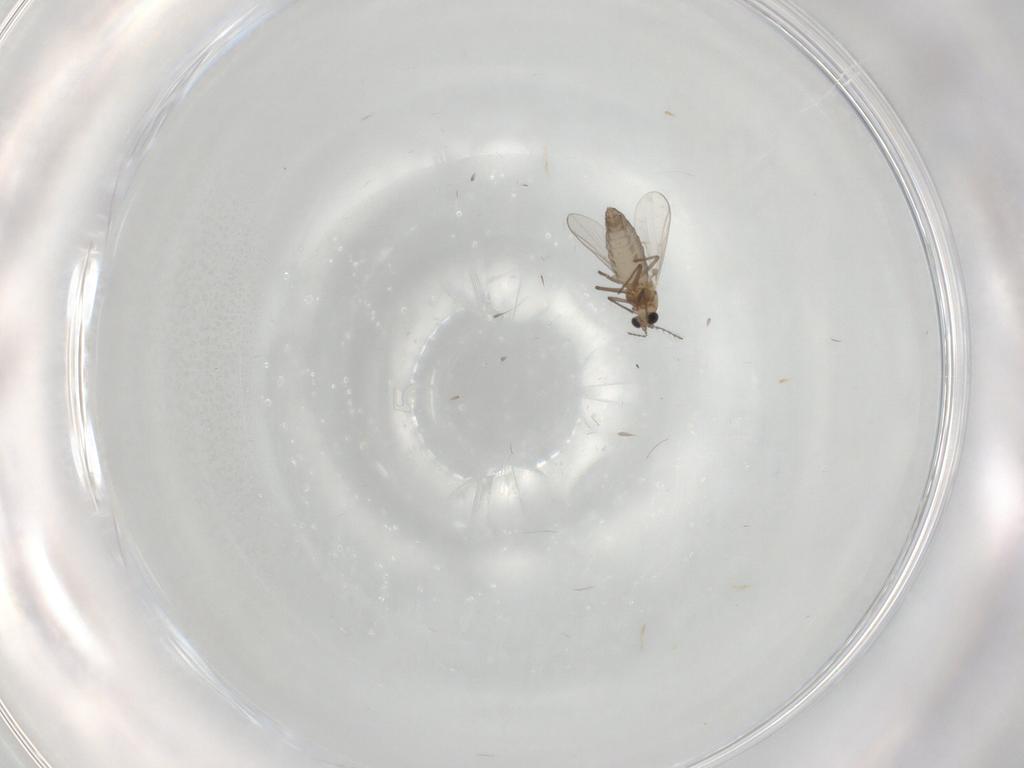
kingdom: Animalia
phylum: Arthropoda
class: Insecta
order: Diptera
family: Chironomidae
